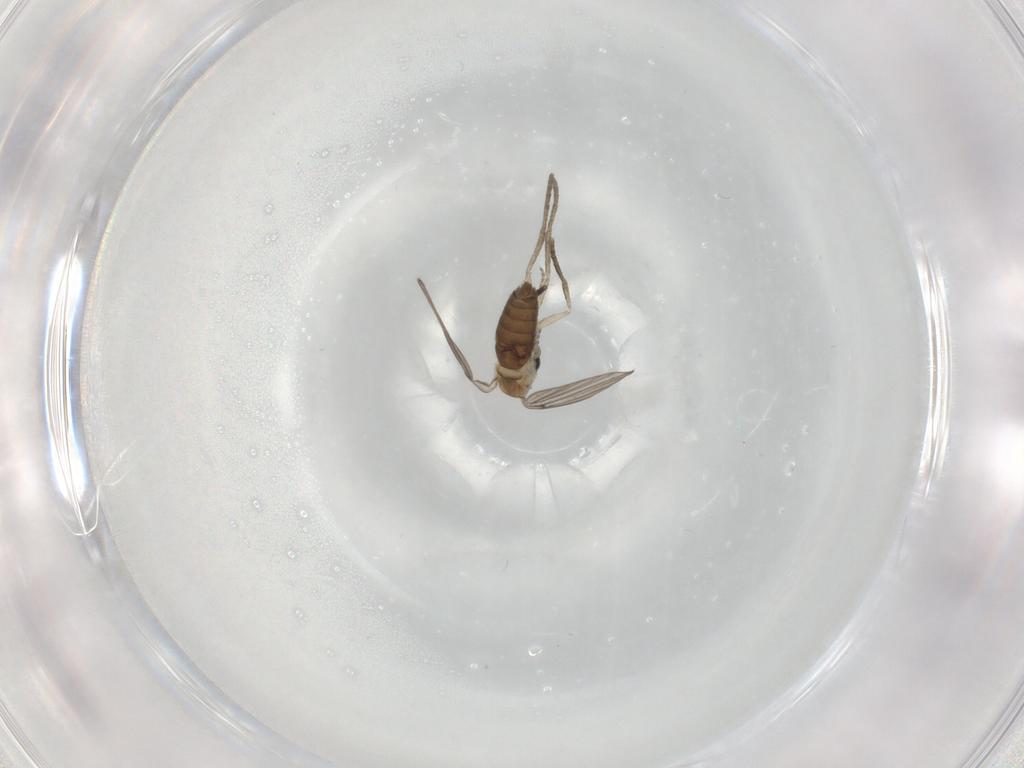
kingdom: Animalia
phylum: Arthropoda
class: Insecta
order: Diptera
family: Psychodidae
